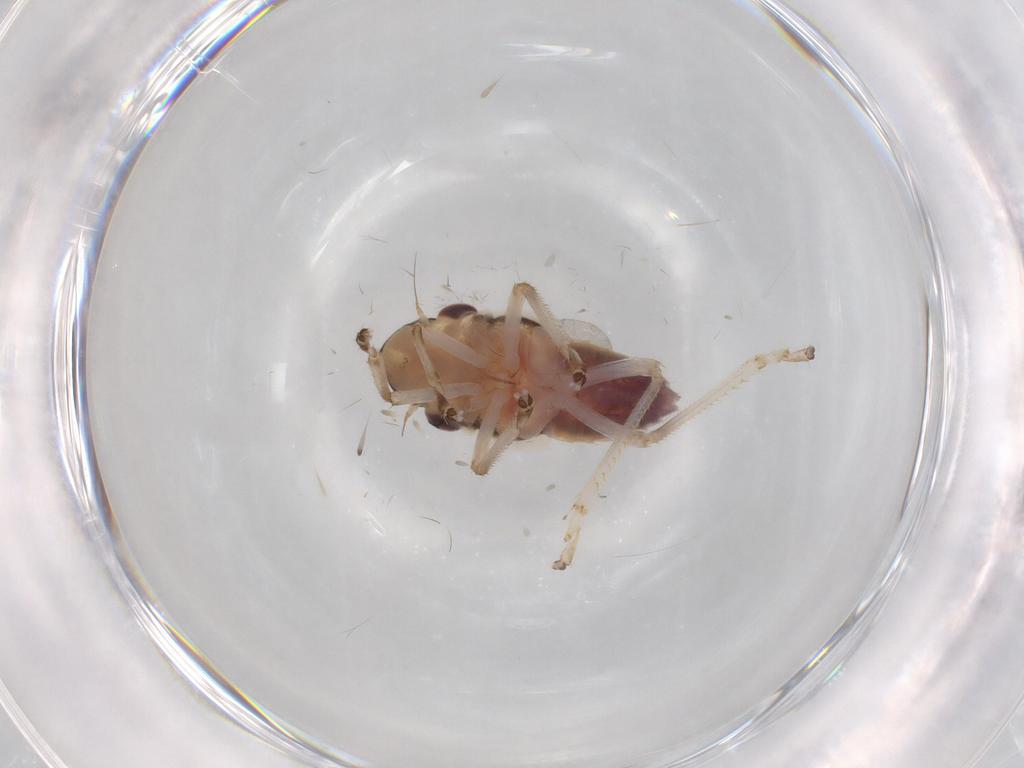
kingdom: Animalia
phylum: Arthropoda
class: Insecta
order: Hemiptera
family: Cicadellidae
